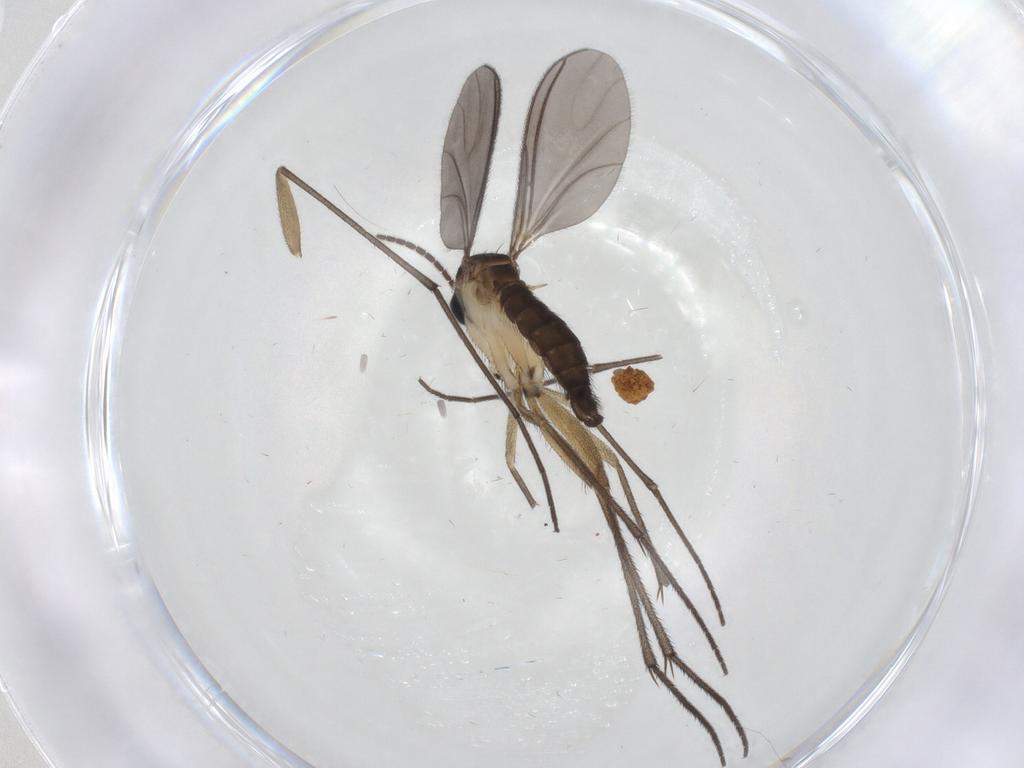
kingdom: Animalia
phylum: Arthropoda
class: Insecta
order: Diptera
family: Sciaridae
